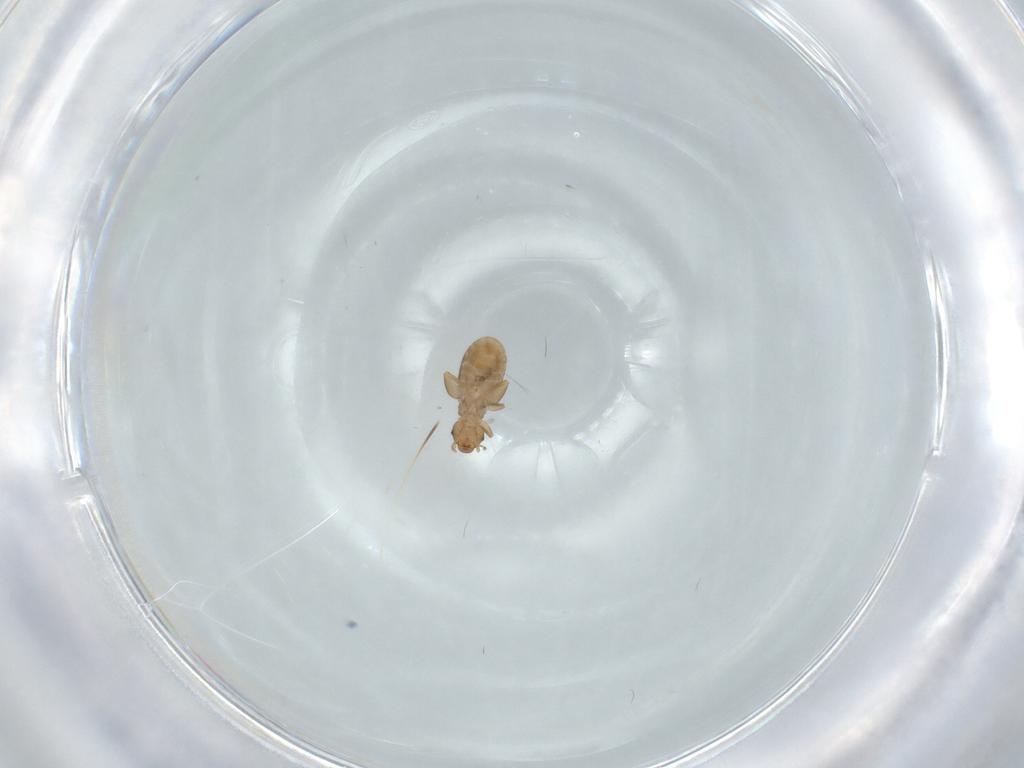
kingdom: Animalia
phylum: Arthropoda
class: Insecta
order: Psocodea
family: Liposcelididae
